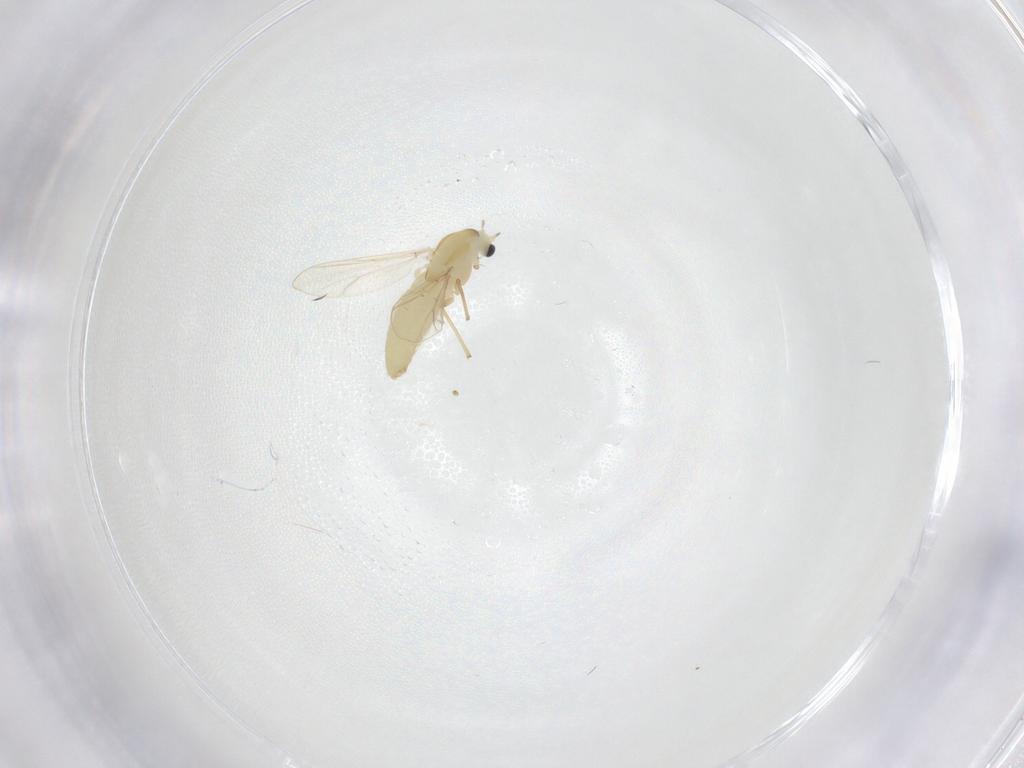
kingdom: Animalia
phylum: Arthropoda
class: Insecta
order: Diptera
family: Chironomidae
